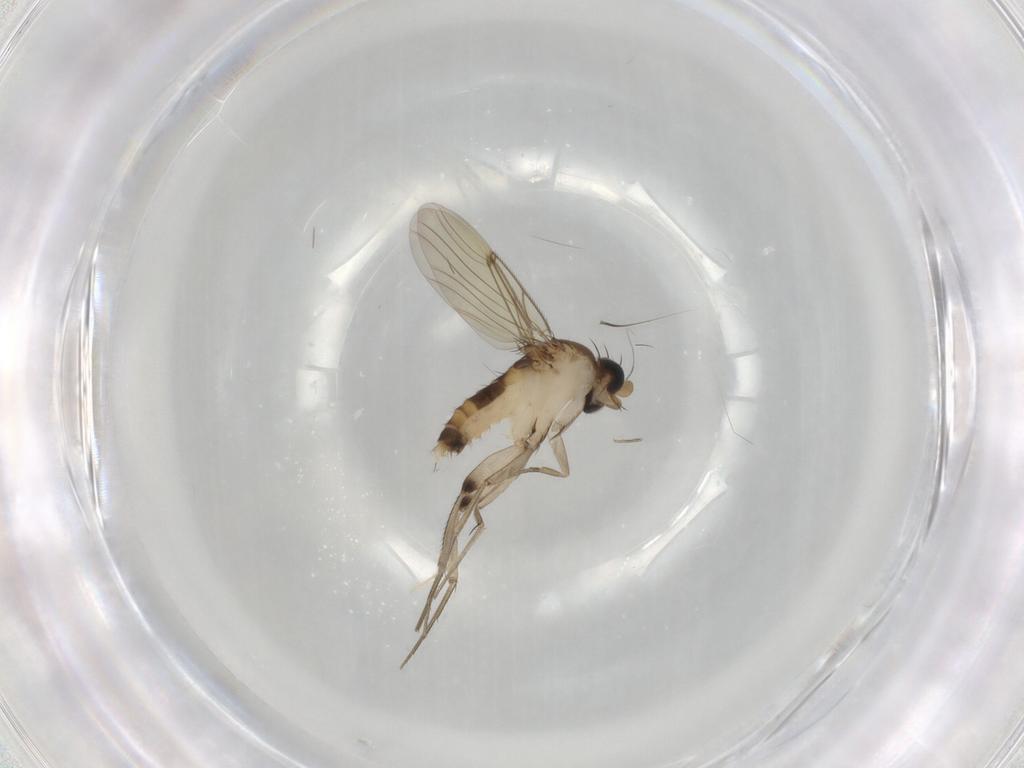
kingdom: Animalia
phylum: Arthropoda
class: Insecta
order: Diptera
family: Chironomidae
